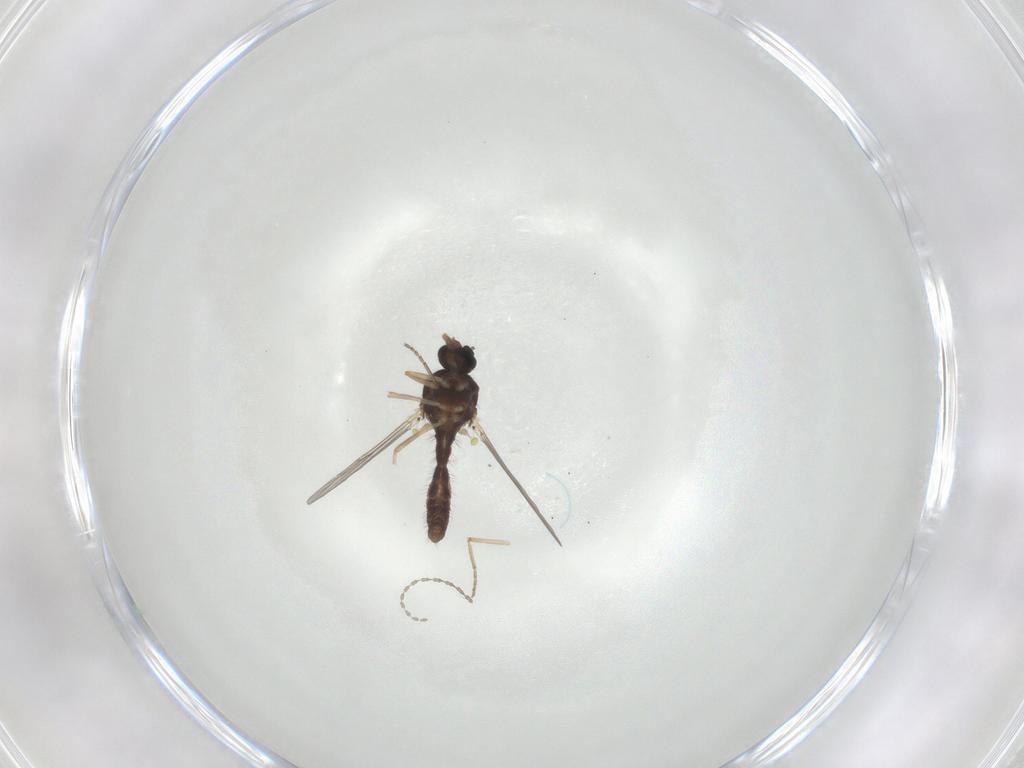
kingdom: Animalia
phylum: Arthropoda
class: Insecta
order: Diptera
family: Ceratopogonidae
